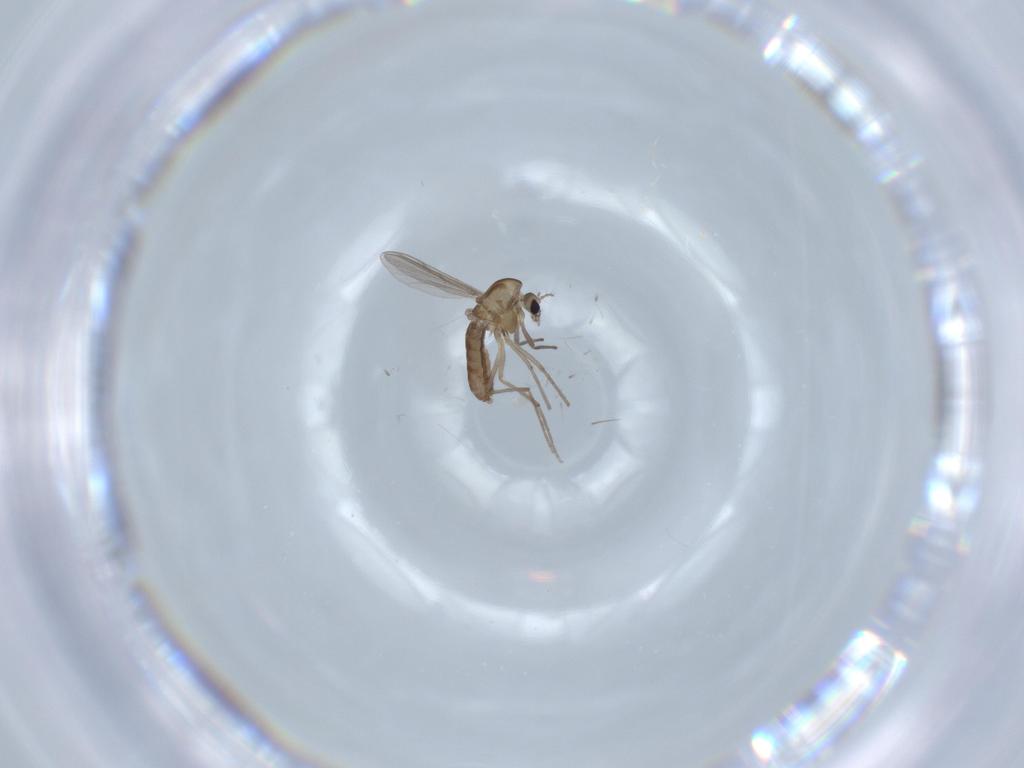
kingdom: Animalia
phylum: Arthropoda
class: Insecta
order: Diptera
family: Chironomidae
